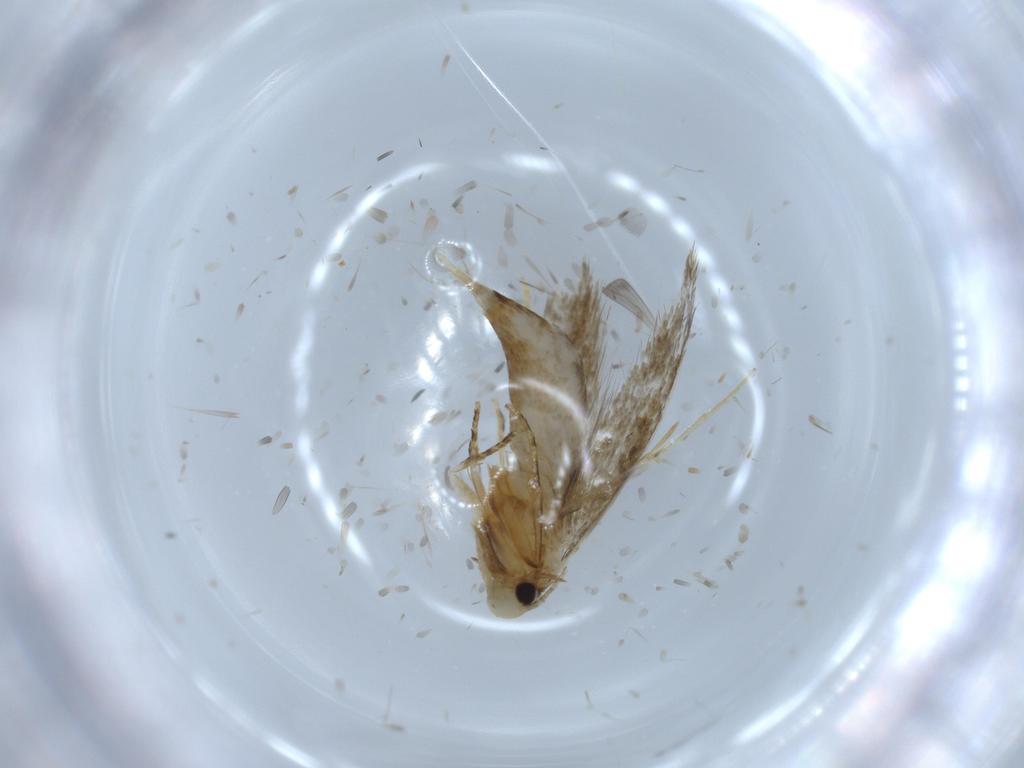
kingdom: Animalia
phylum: Arthropoda
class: Insecta
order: Lepidoptera
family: Tineidae
